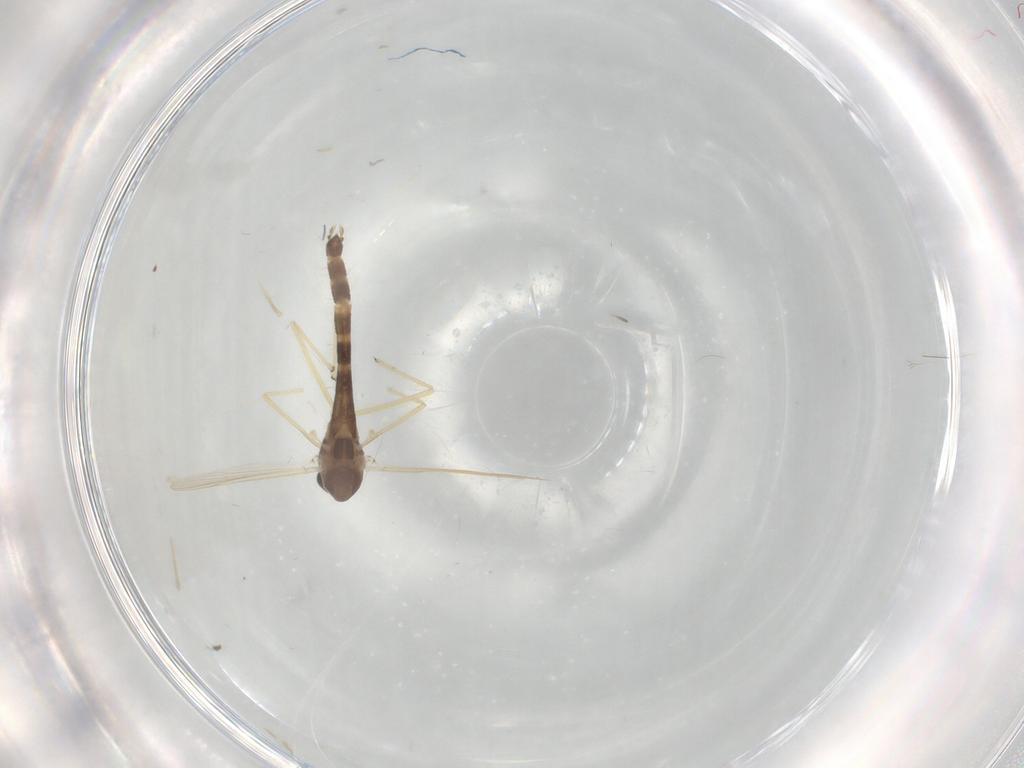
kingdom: Animalia
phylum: Arthropoda
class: Insecta
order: Diptera
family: Chironomidae
